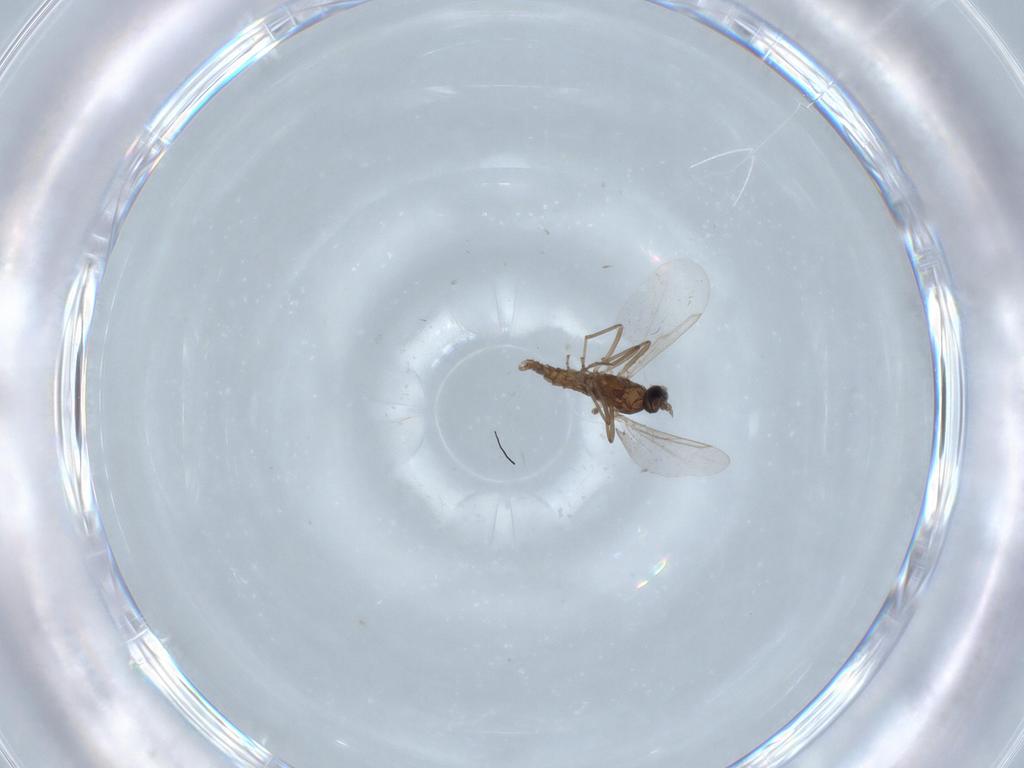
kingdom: Animalia
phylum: Arthropoda
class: Insecta
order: Diptera
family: Cecidomyiidae
